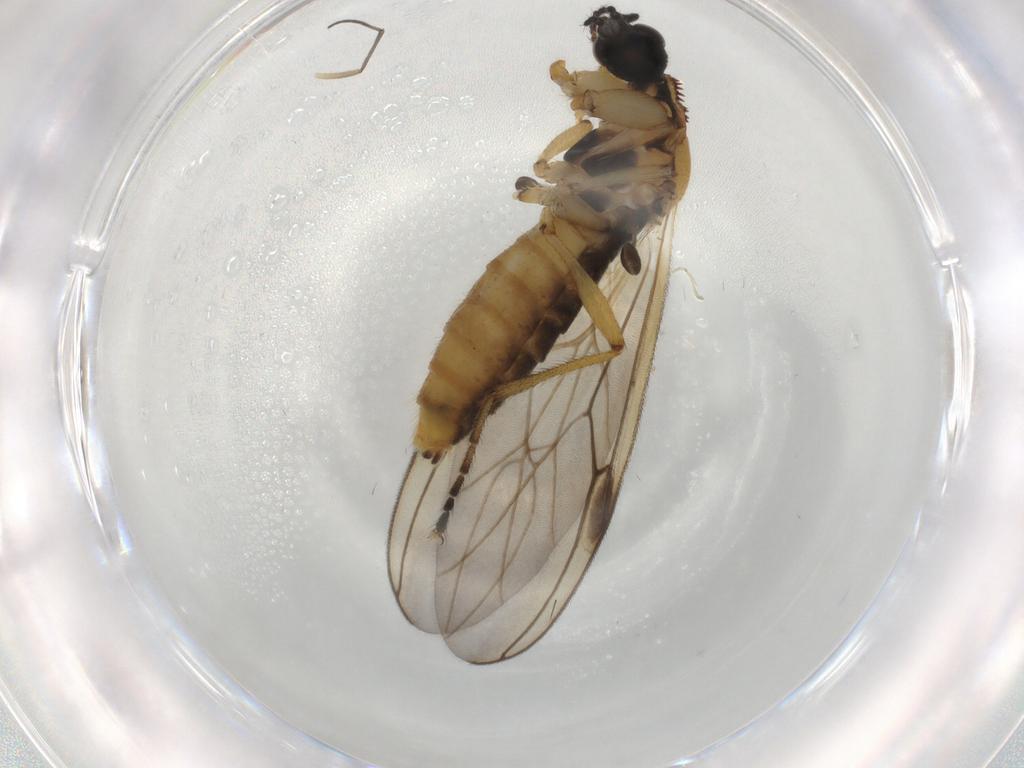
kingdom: Animalia
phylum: Arthropoda
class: Insecta
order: Diptera
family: Bibionidae
